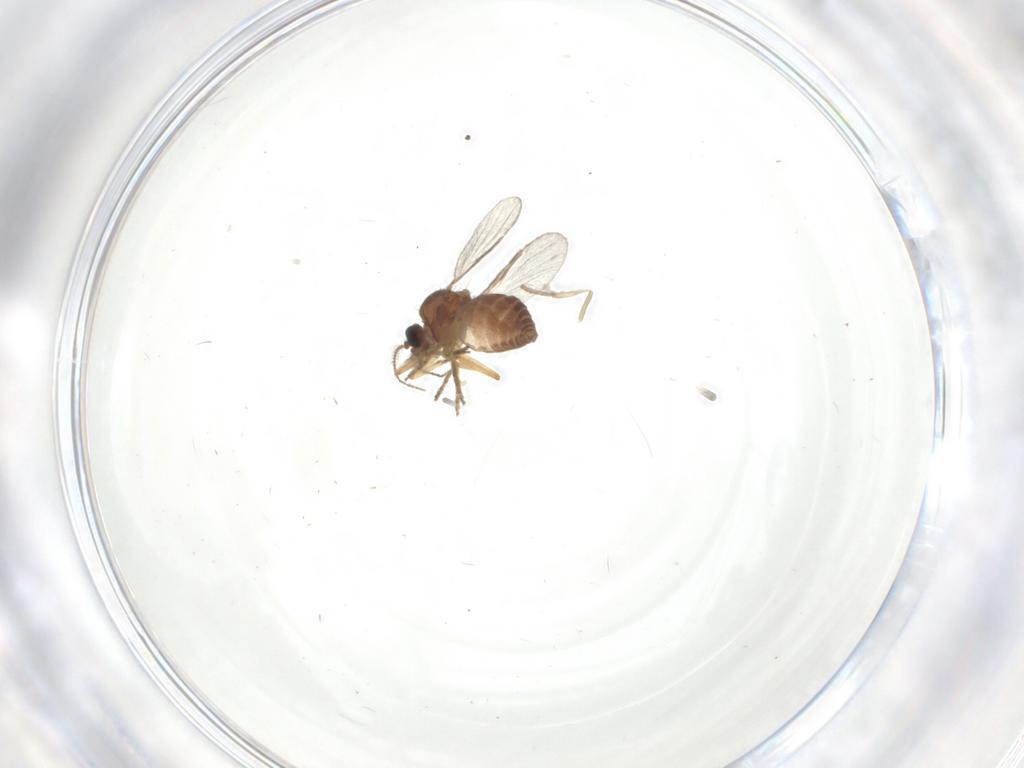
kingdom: Animalia
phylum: Arthropoda
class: Insecta
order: Diptera
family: Ceratopogonidae
